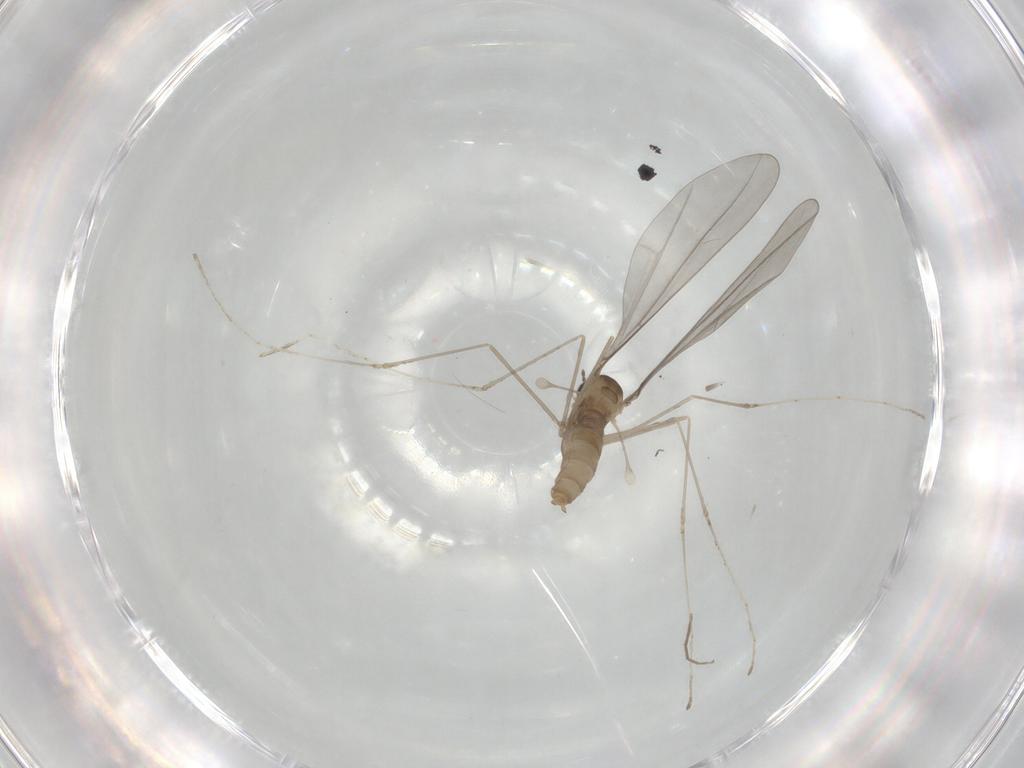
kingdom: Animalia
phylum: Arthropoda
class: Insecta
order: Diptera
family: Cecidomyiidae
